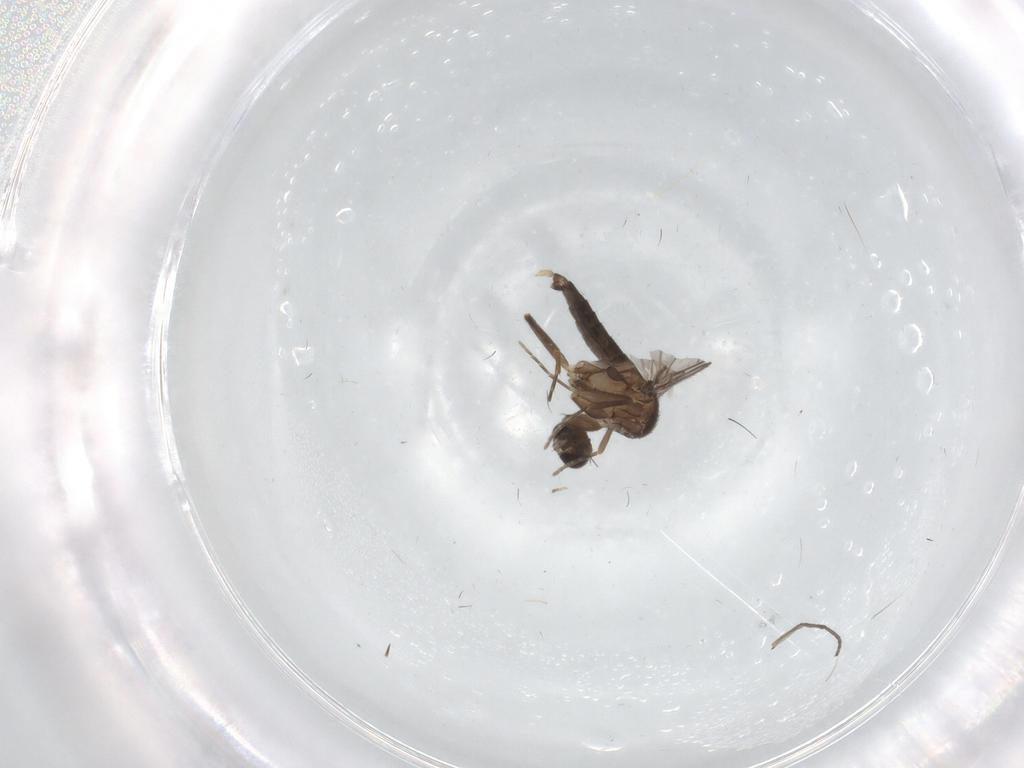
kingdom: Animalia
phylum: Arthropoda
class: Insecta
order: Diptera
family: Sciaridae
